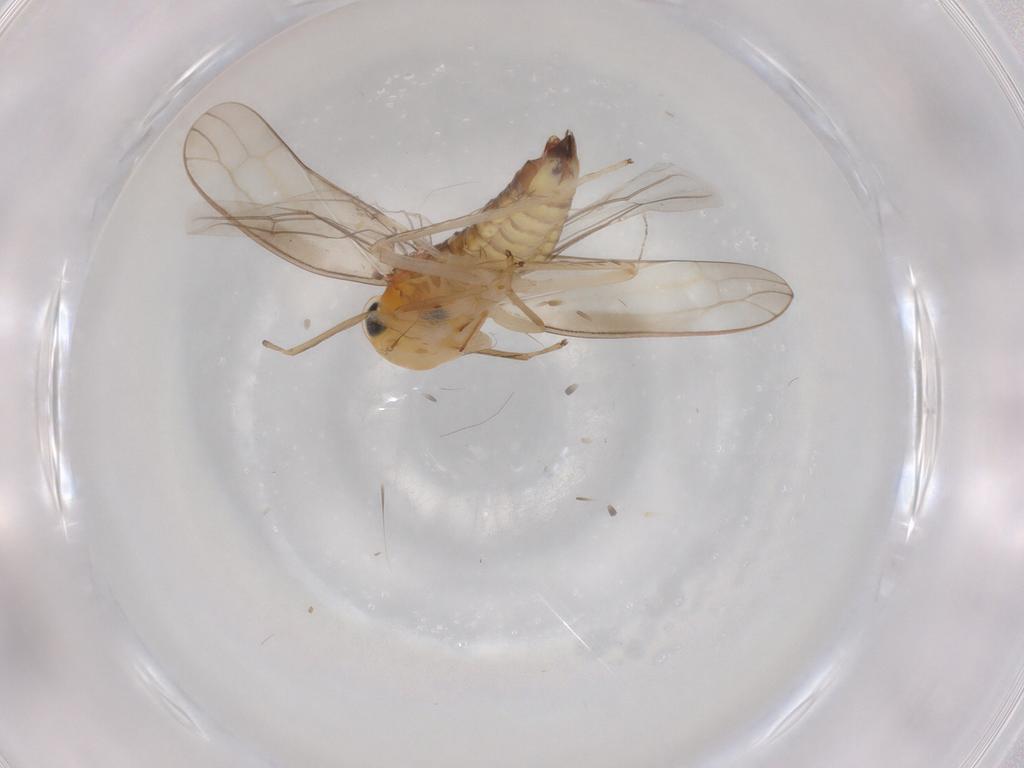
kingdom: Animalia
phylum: Arthropoda
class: Insecta
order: Hemiptera
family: Cicadellidae
